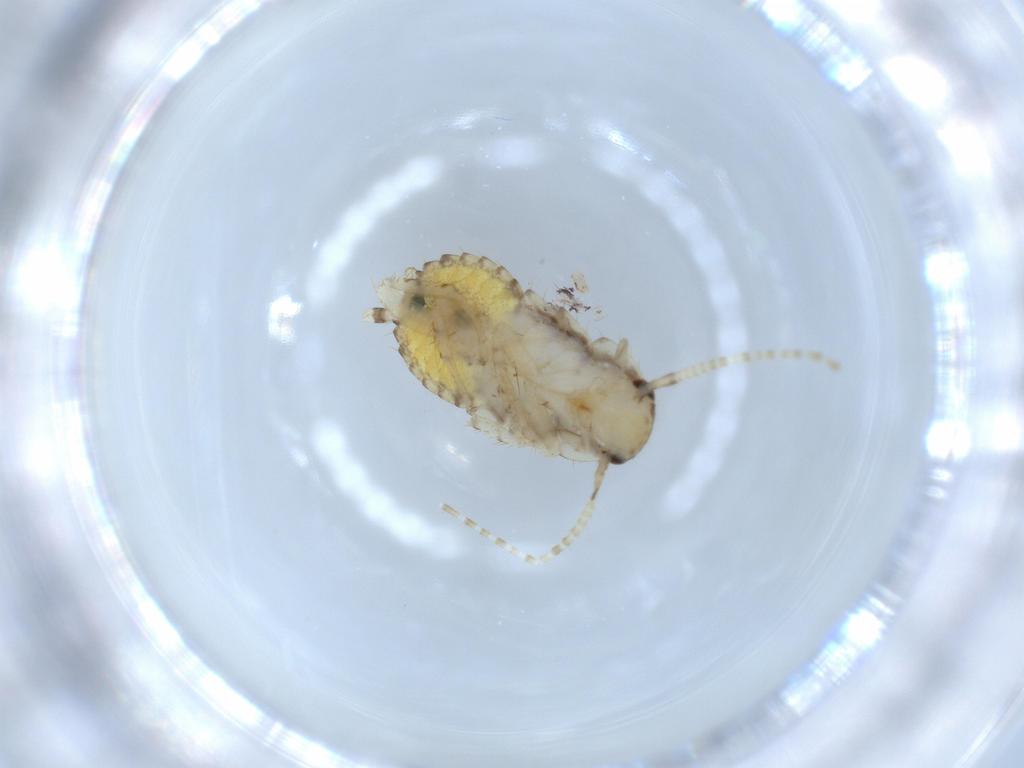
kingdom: Animalia
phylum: Arthropoda
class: Insecta
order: Blattodea
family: Ectobiidae
